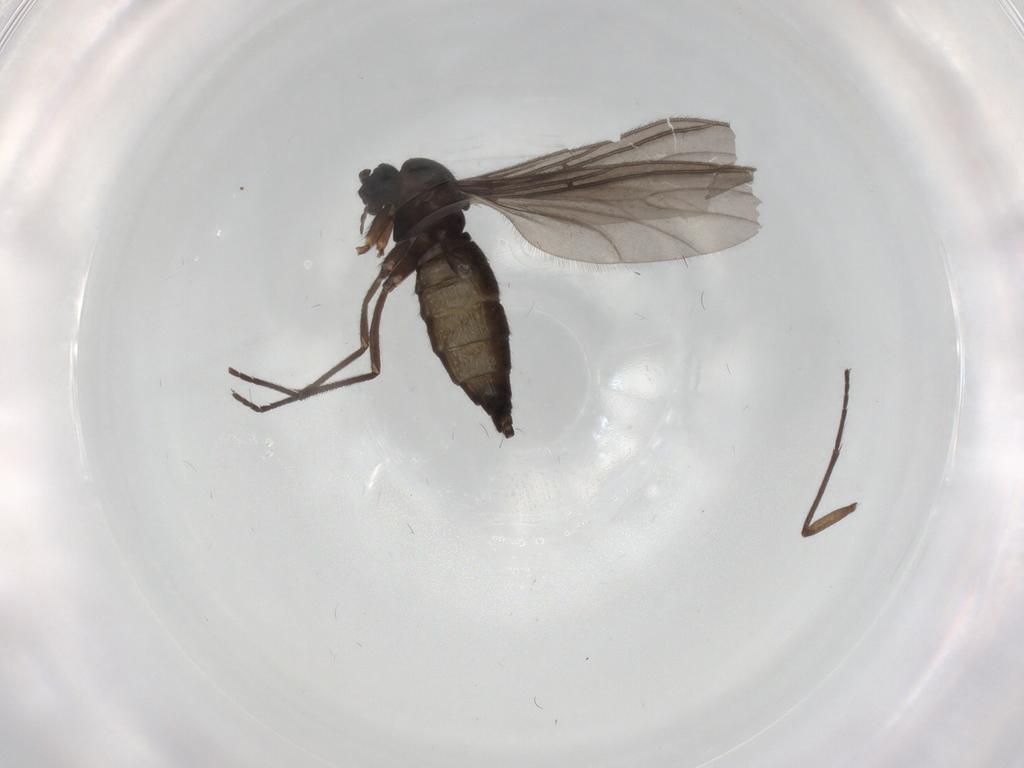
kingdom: Animalia
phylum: Arthropoda
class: Insecta
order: Diptera
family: Sciaridae
